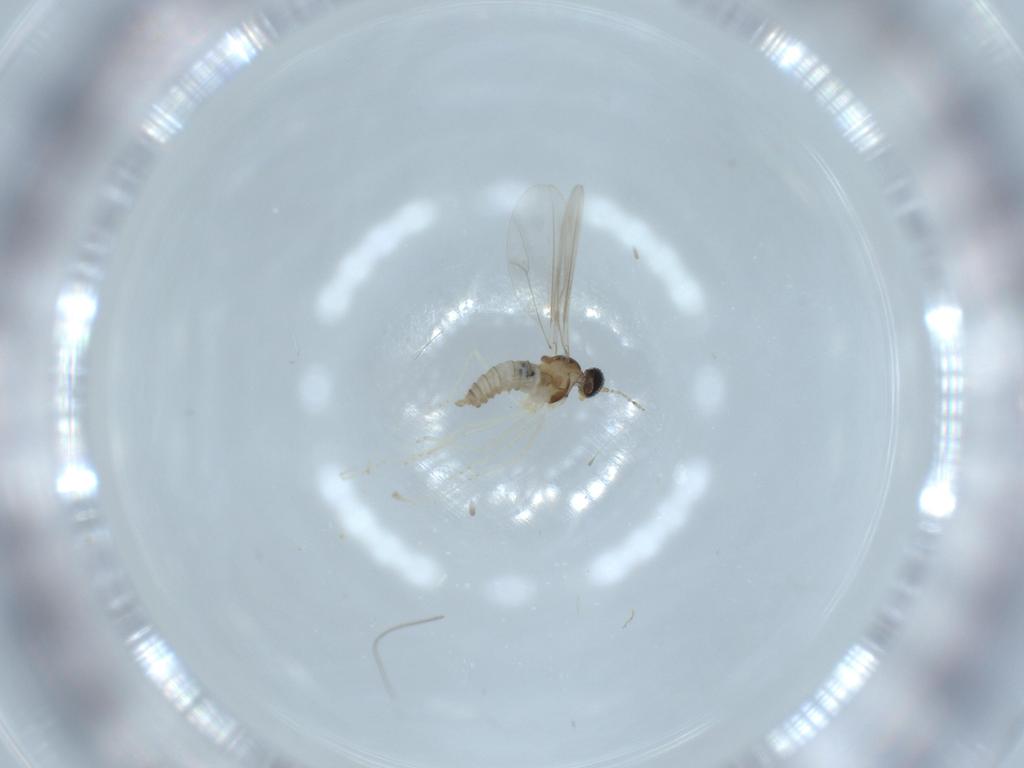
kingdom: Animalia
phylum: Arthropoda
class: Insecta
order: Diptera
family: Cecidomyiidae
